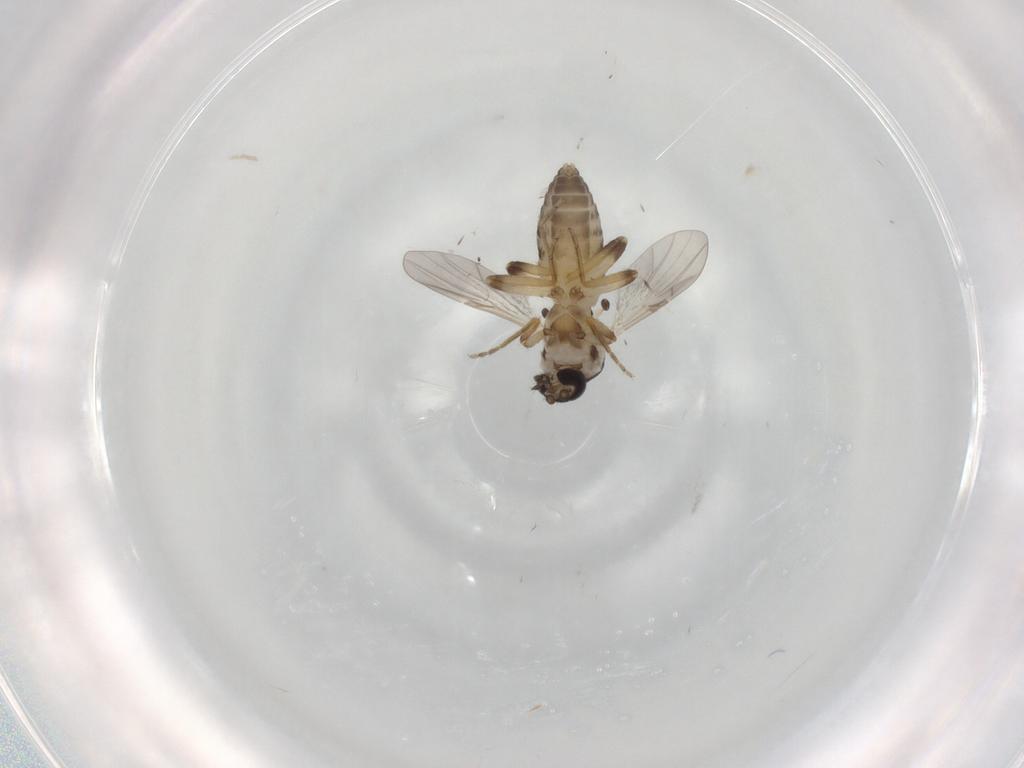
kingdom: Animalia
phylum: Arthropoda
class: Insecta
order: Diptera
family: Ceratopogonidae
